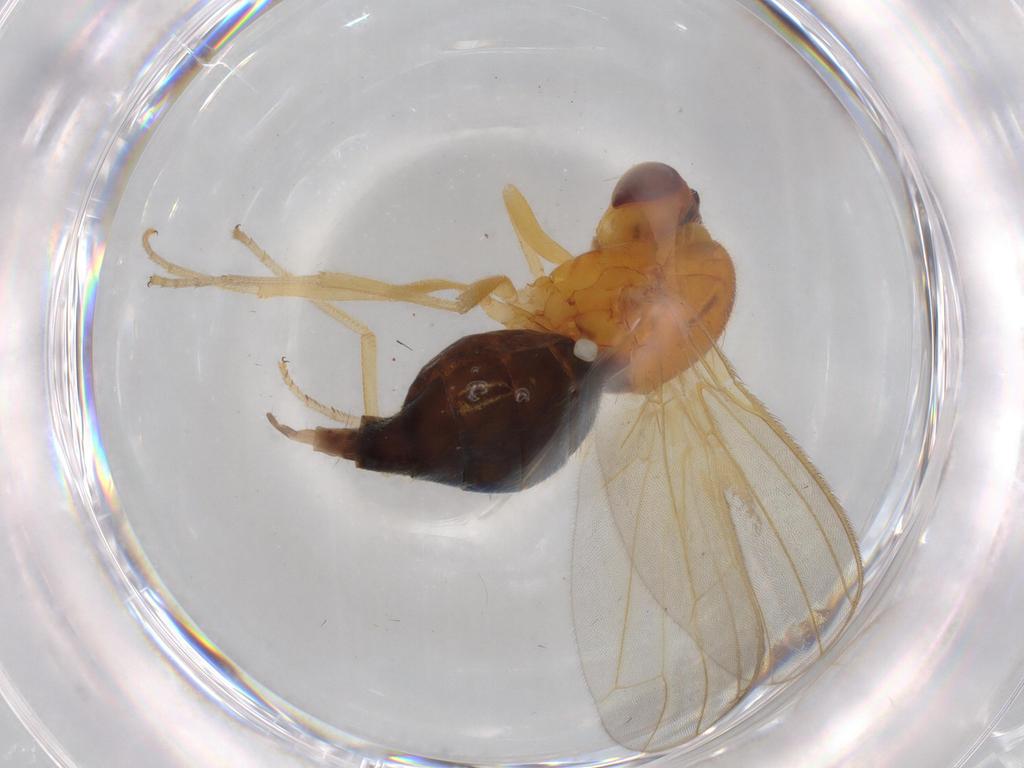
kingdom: Animalia
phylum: Arthropoda
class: Insecta
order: Diptera
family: Psilidae
